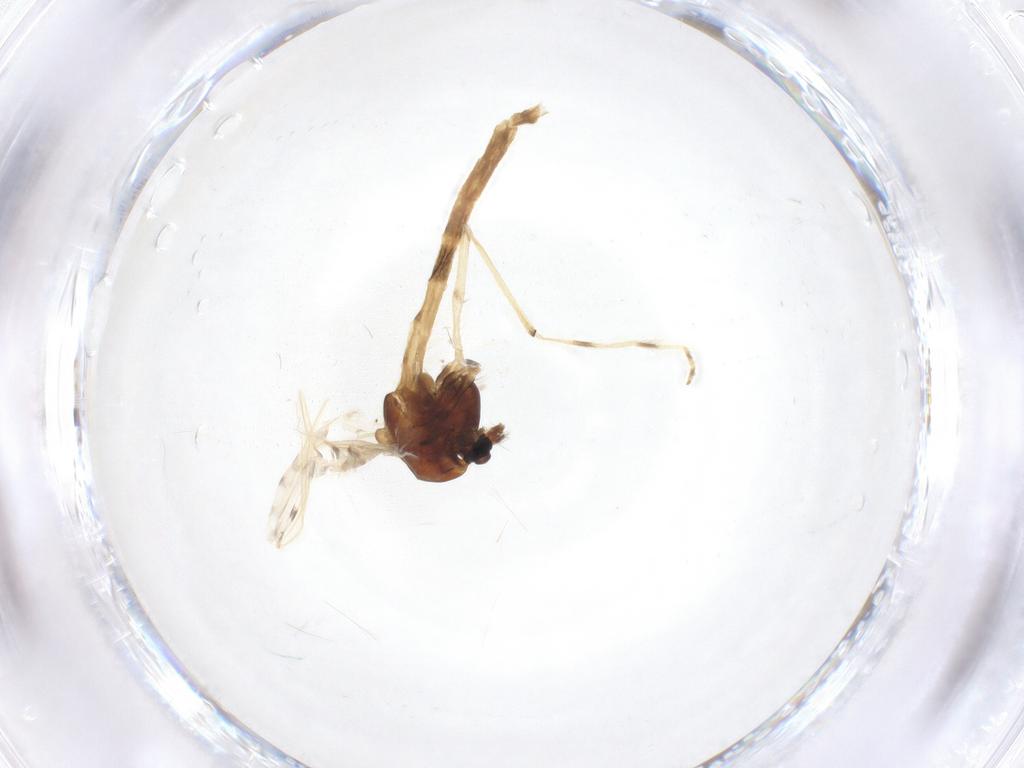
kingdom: Animalia
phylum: Arthropoda
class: Insecta
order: Diptera
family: Chironomidae
